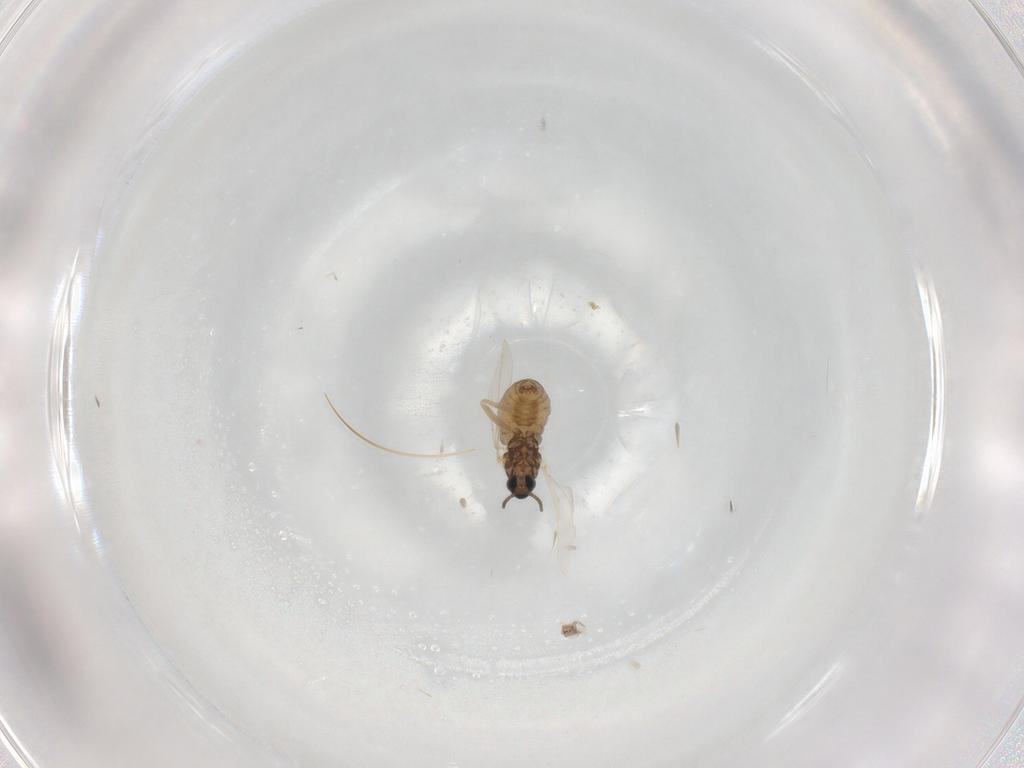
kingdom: Animalia
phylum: Arthropoda
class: Insecta
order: Diptera
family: Cecidomyiidae
